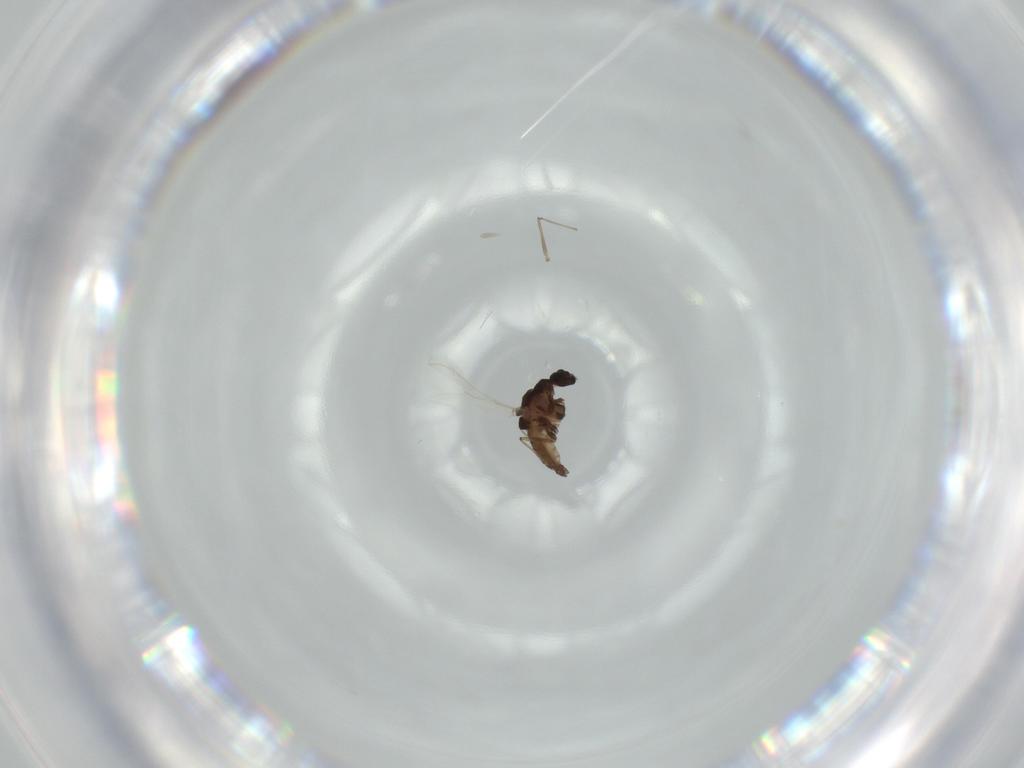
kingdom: Animalia
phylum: Arthropoda
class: Insecta
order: Diptera
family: Chironomidae
